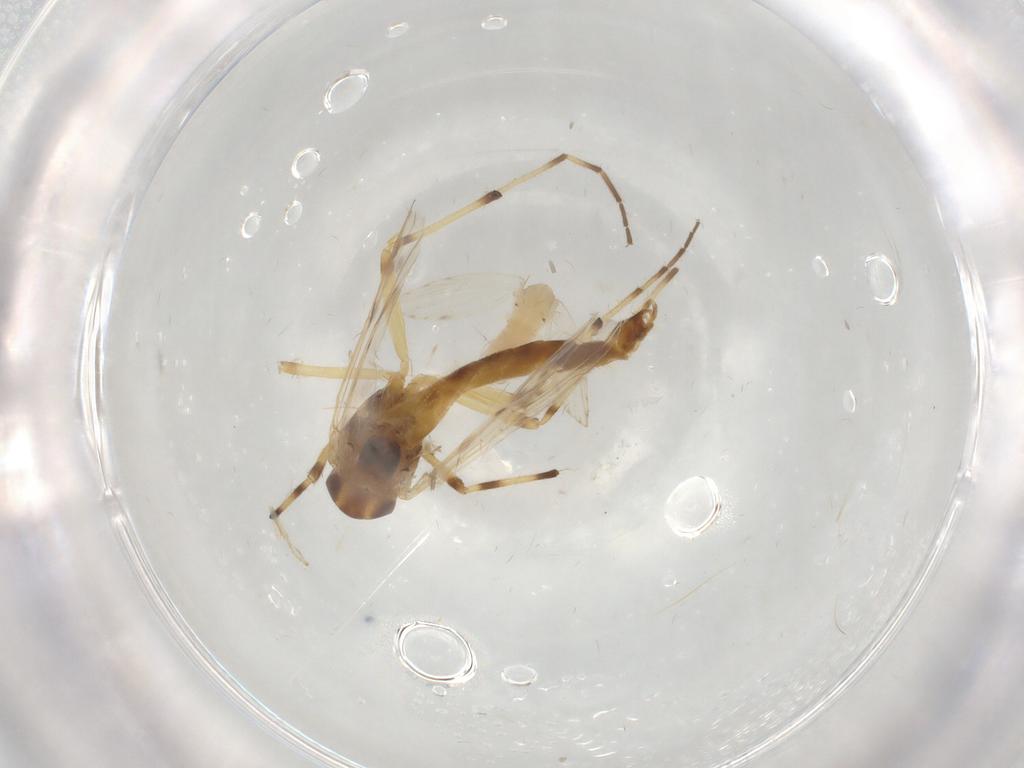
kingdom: Animalia
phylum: Arthropoda
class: Insecta
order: Diptera
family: Chironomidae
